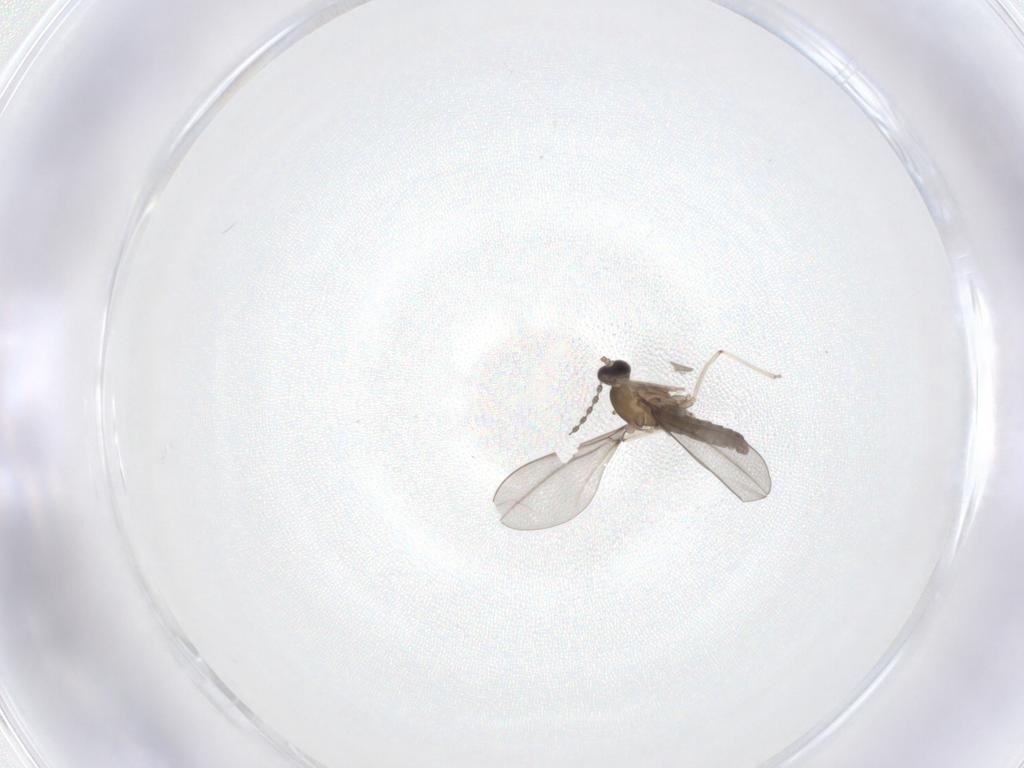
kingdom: Animalia
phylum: Arthropoda
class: Insecta
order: Diptera
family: Cecidomyiidae
